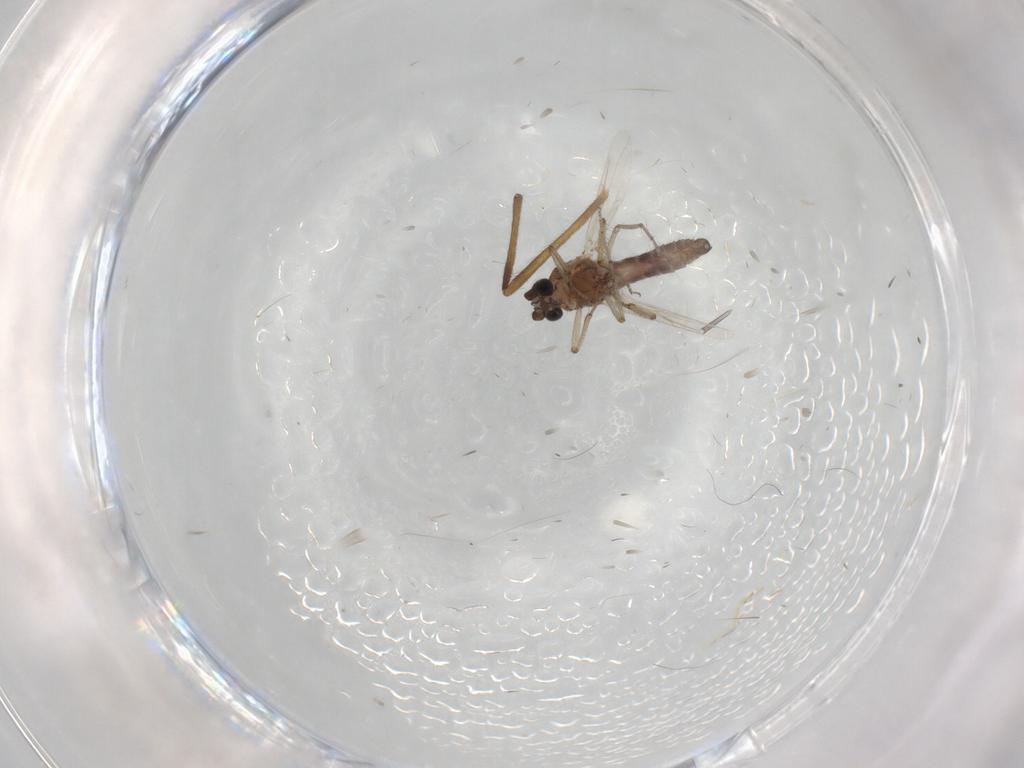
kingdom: Animalia
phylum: Arthropoda
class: Insecta
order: Diptera
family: Ceratopogonidae
